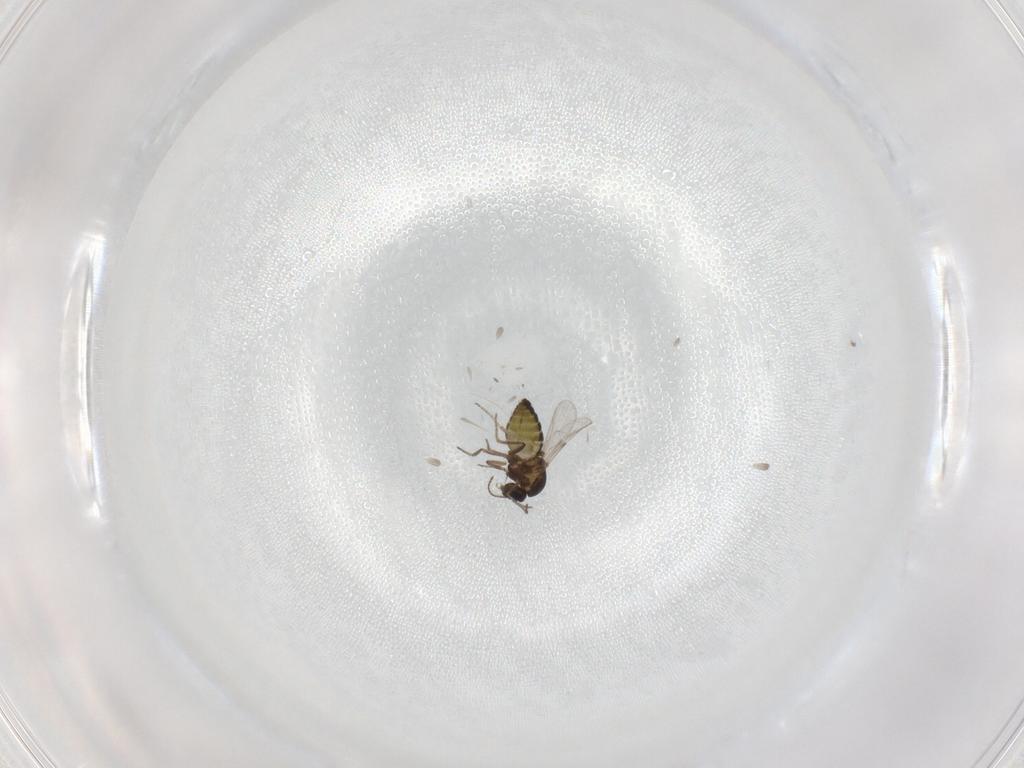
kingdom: Animalia
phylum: Arthropoda
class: Insecta
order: Diptera
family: Ceratopogonidae
